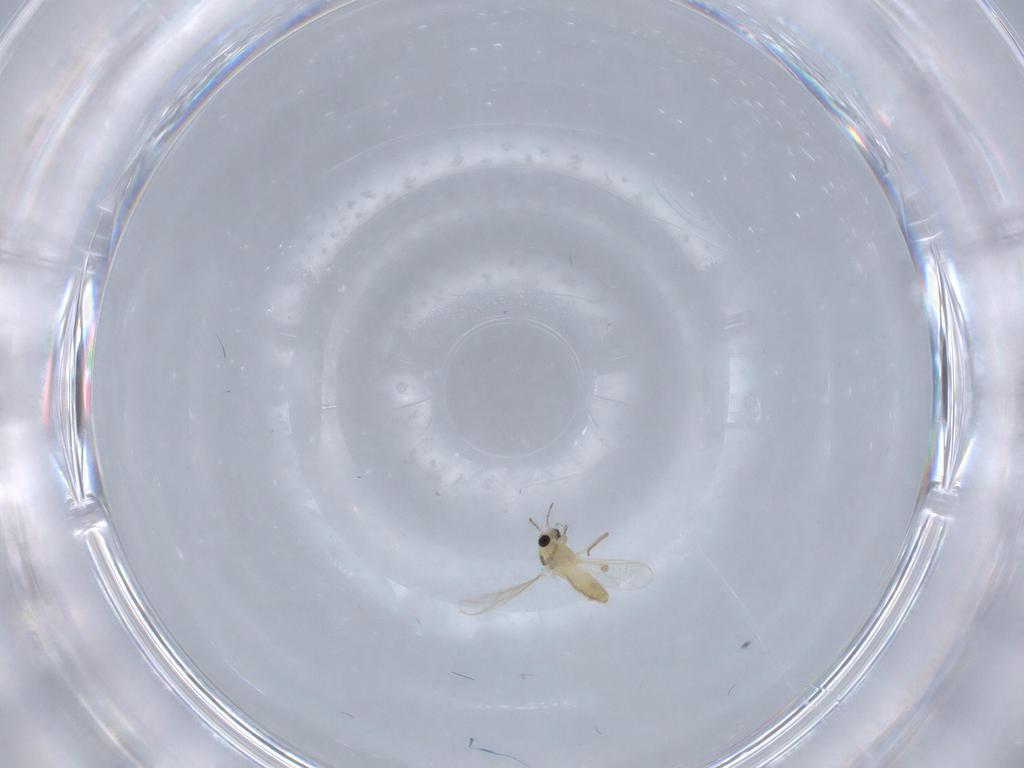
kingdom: Animalia
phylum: Arthropoda
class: Insecta
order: Diptera
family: Chironomidae
